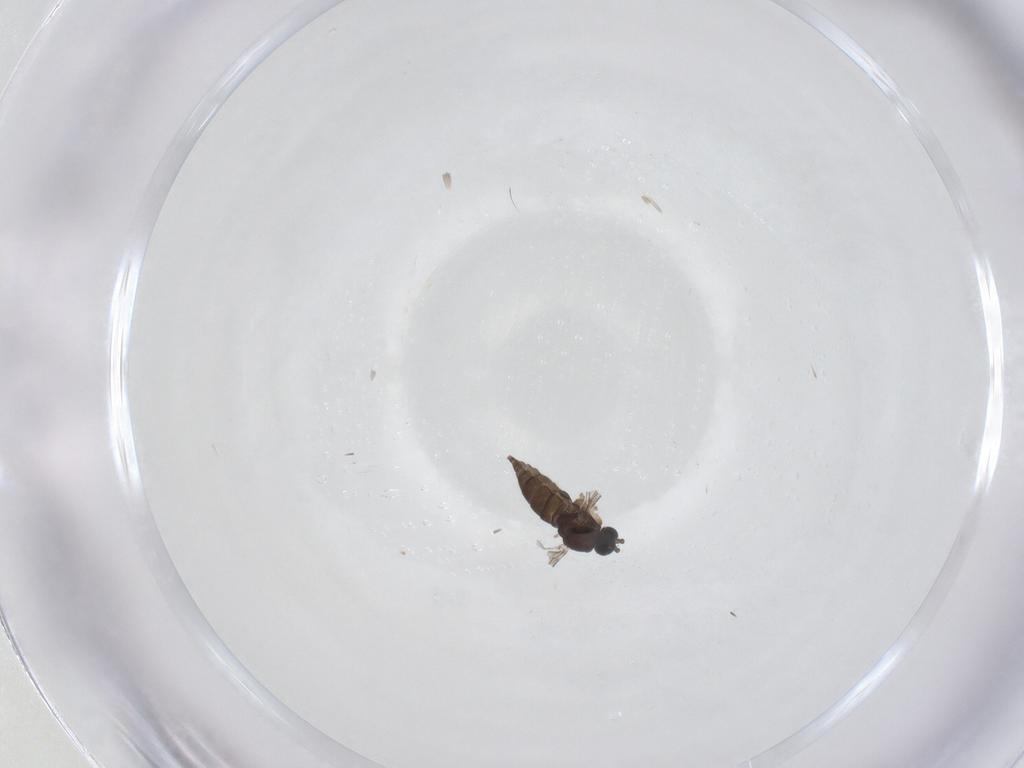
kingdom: Animalia
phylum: Arthropoda
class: Insecta
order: Diptera
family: Sciaridae
